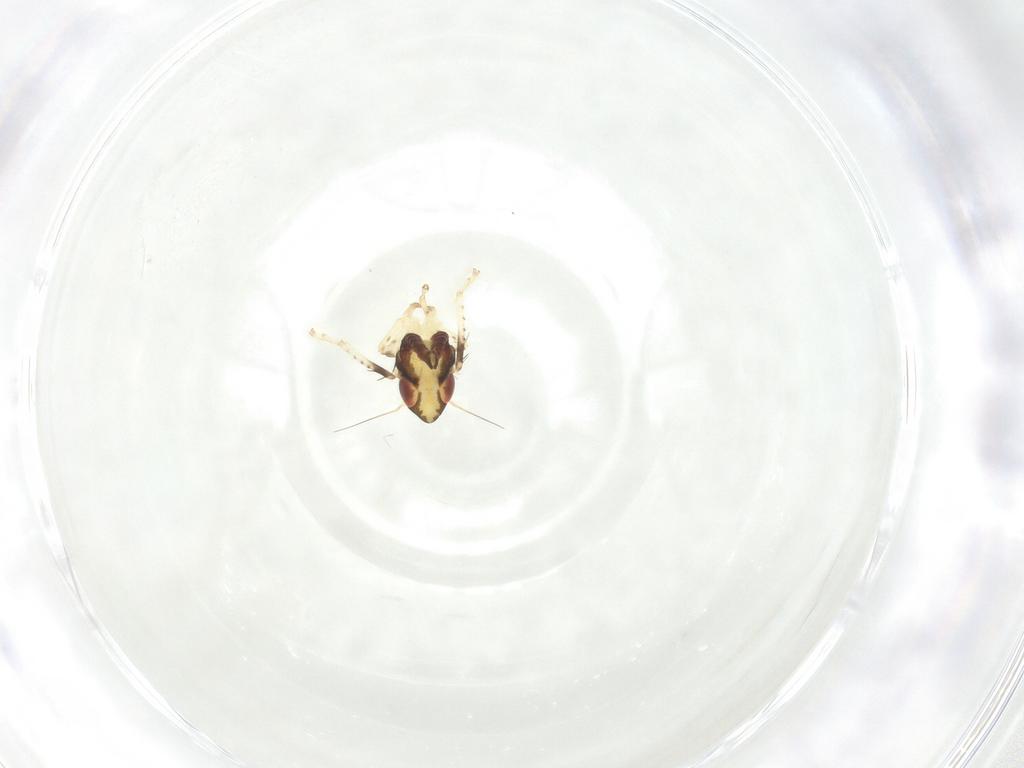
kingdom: Animalia
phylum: Arthropoda
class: Insecta
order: Hemiptera
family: Cicadellidae
